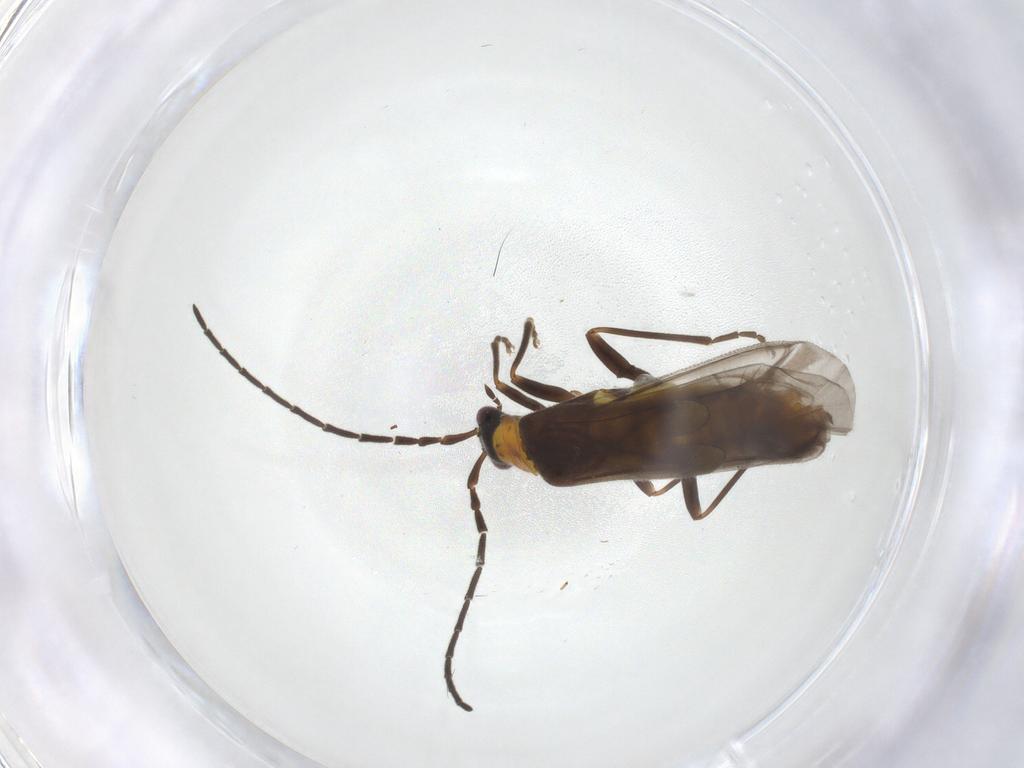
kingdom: Animalia
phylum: Arthropoda
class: Insecta
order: Coleoptera
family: Cantharidae
